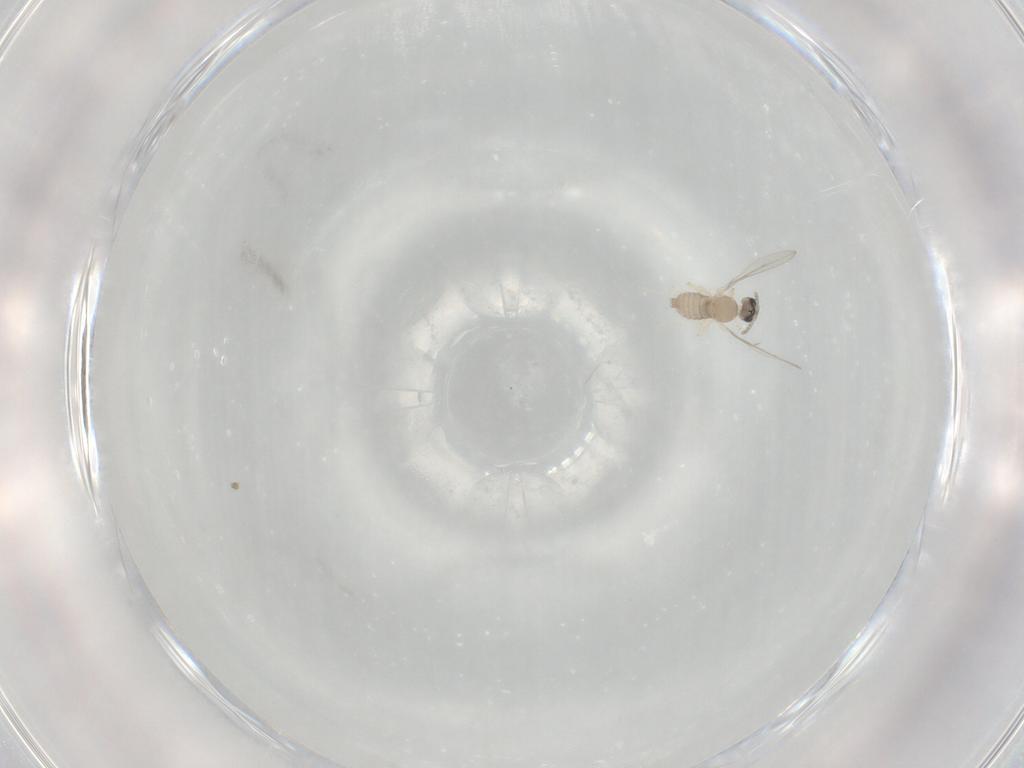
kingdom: Animalia
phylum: Arthropoda
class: Insecta
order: Diptera
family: Cecidomyiidae
